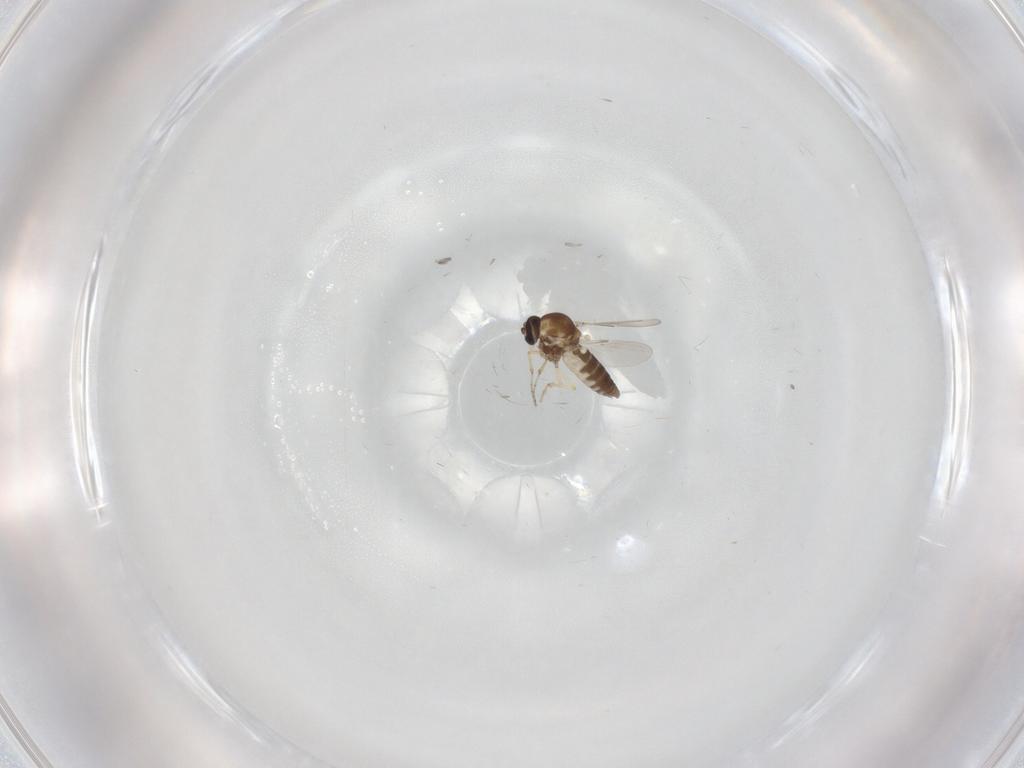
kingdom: Animalia
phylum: Arthropoda
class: Insecta
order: Diptera
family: Ceratopogonidae
